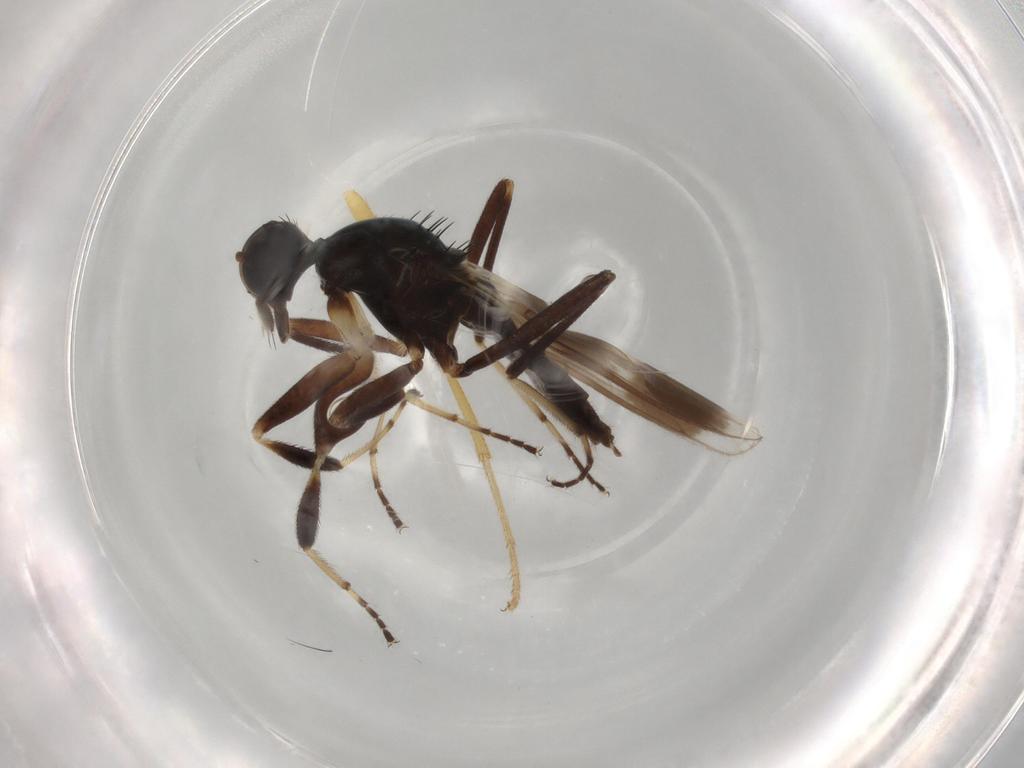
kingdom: Animalia
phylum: Arthropoda
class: Insecta
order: Diptera
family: Hybotidae
